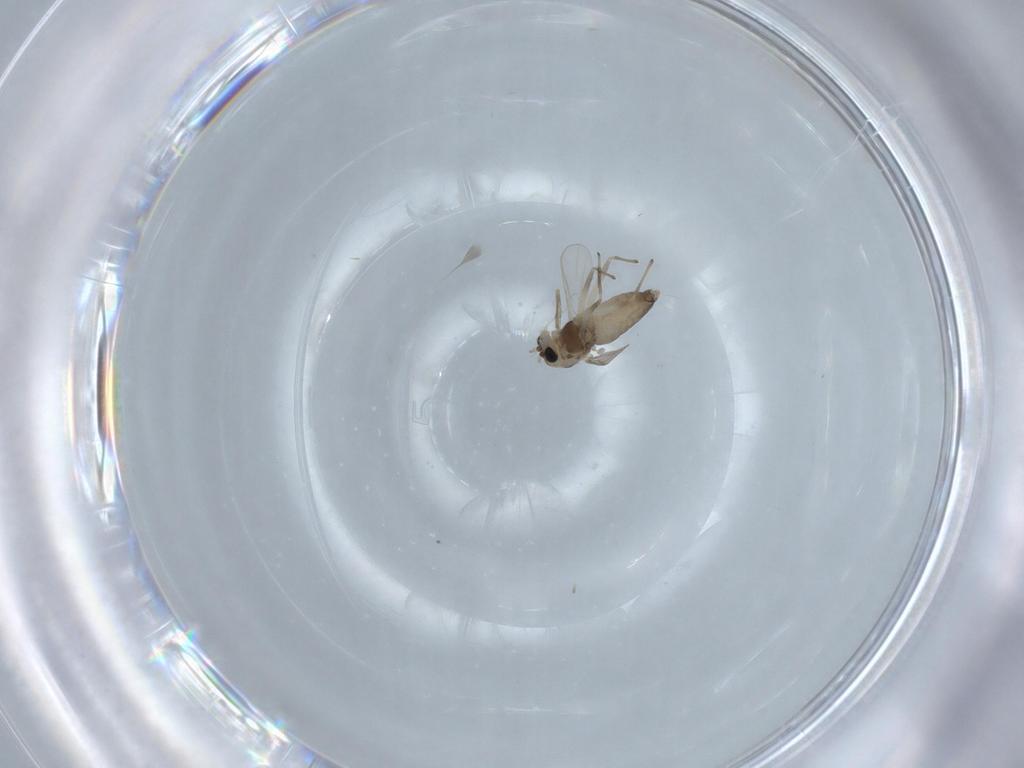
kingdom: Animalia
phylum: Arthropoda
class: Insecta
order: Diptera
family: Chironomidae
